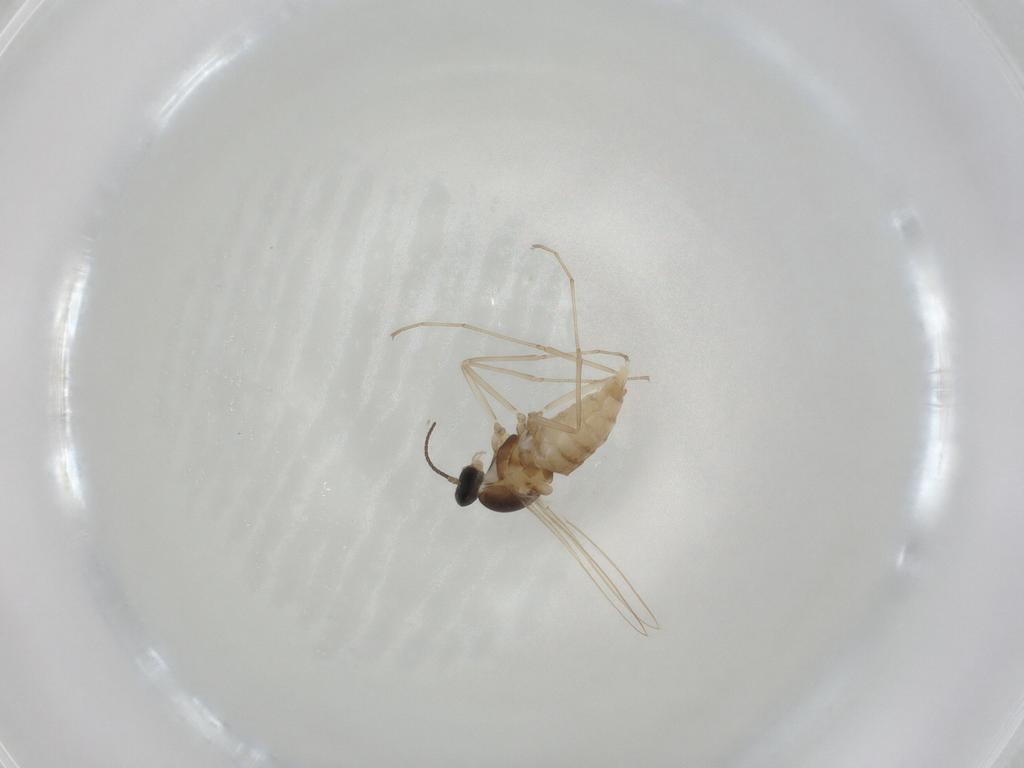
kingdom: Animalia
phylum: Arthropoda
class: Insecta
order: Diptera
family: Cecidomyiidae
